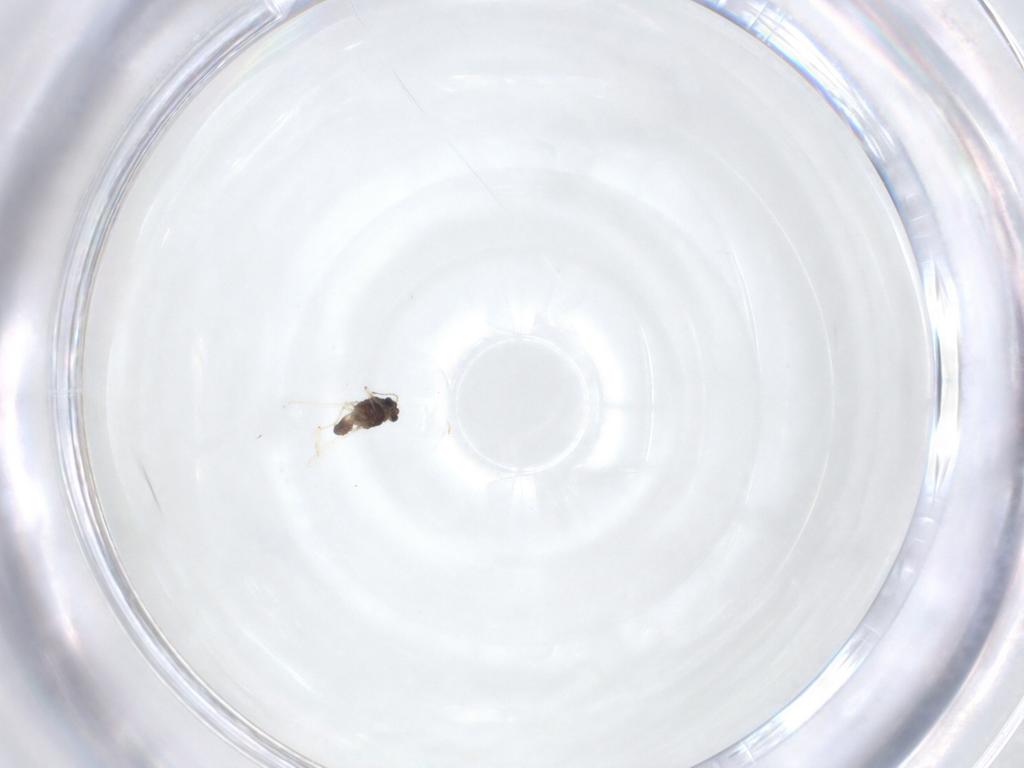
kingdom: Animalia
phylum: Arthropoda
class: Insecta
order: Diptera
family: Chironomidae
